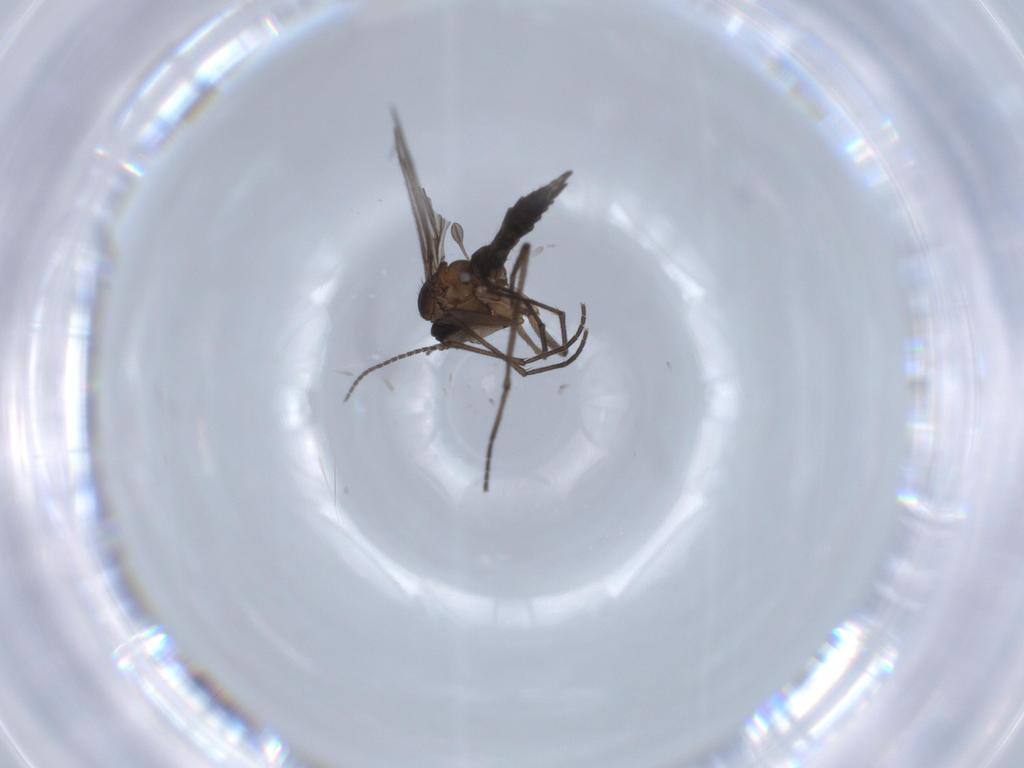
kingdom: Animalia
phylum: Arthropoda
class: Insecta
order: Diptera
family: Sciaridae
